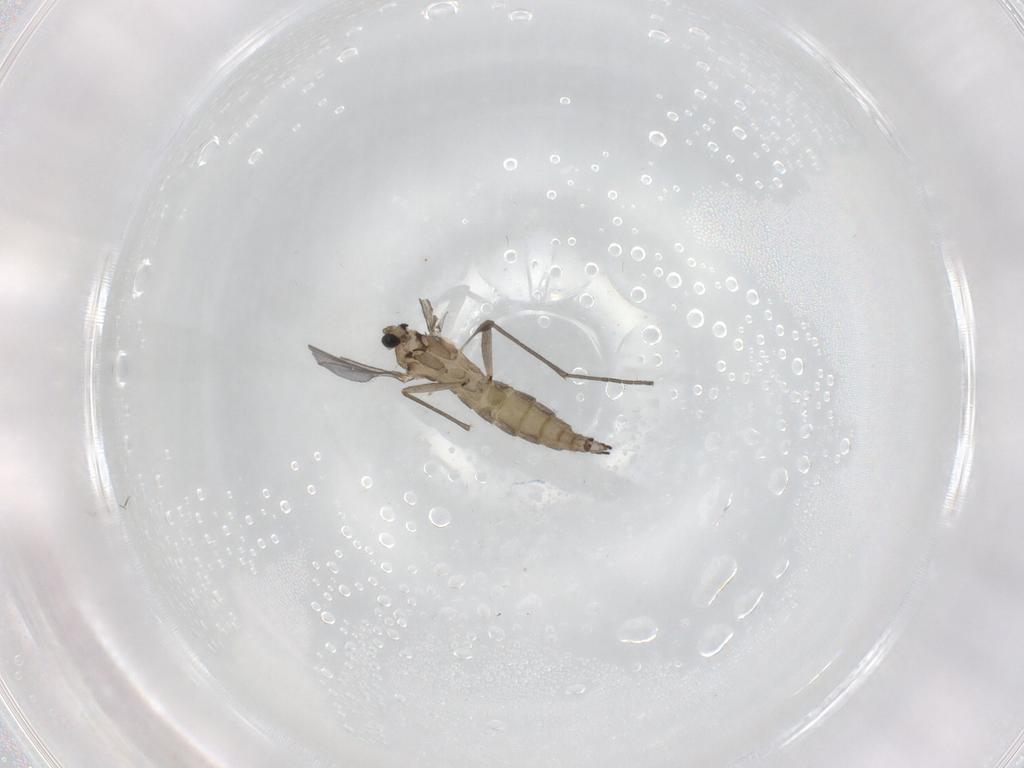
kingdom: Animalia
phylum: Arthropoda
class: Insecta
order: Diptera
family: Sciaridae
